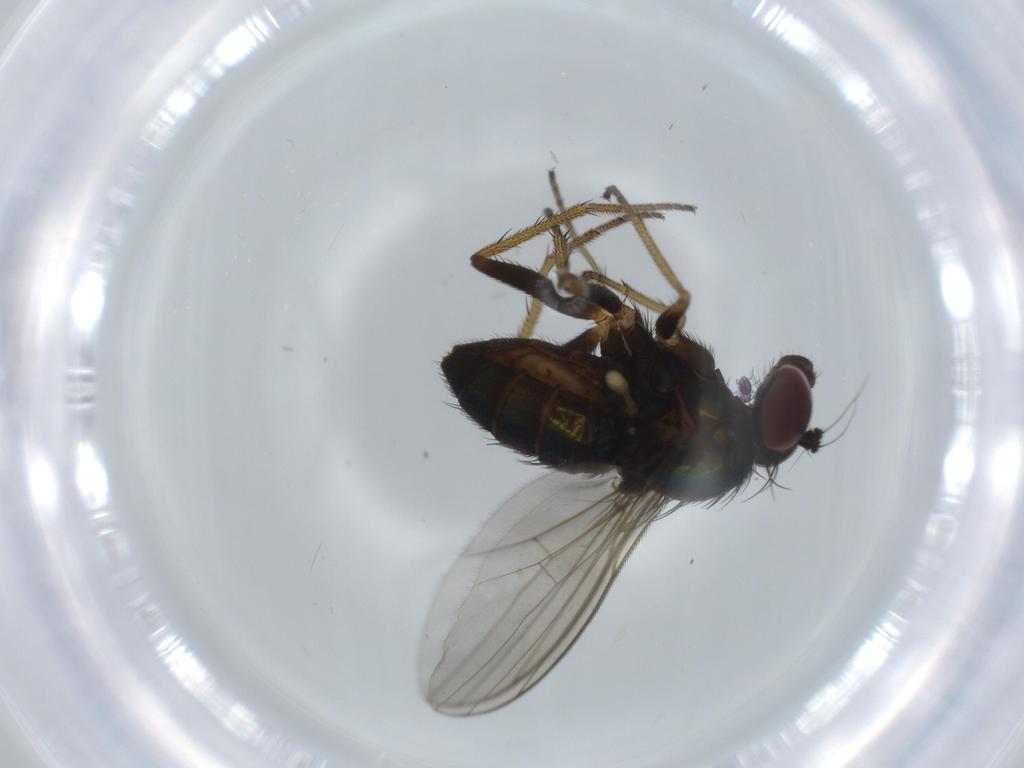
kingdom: Animalia
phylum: Arthropoda
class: Insecta
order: Diptera
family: Dolichopodidae
